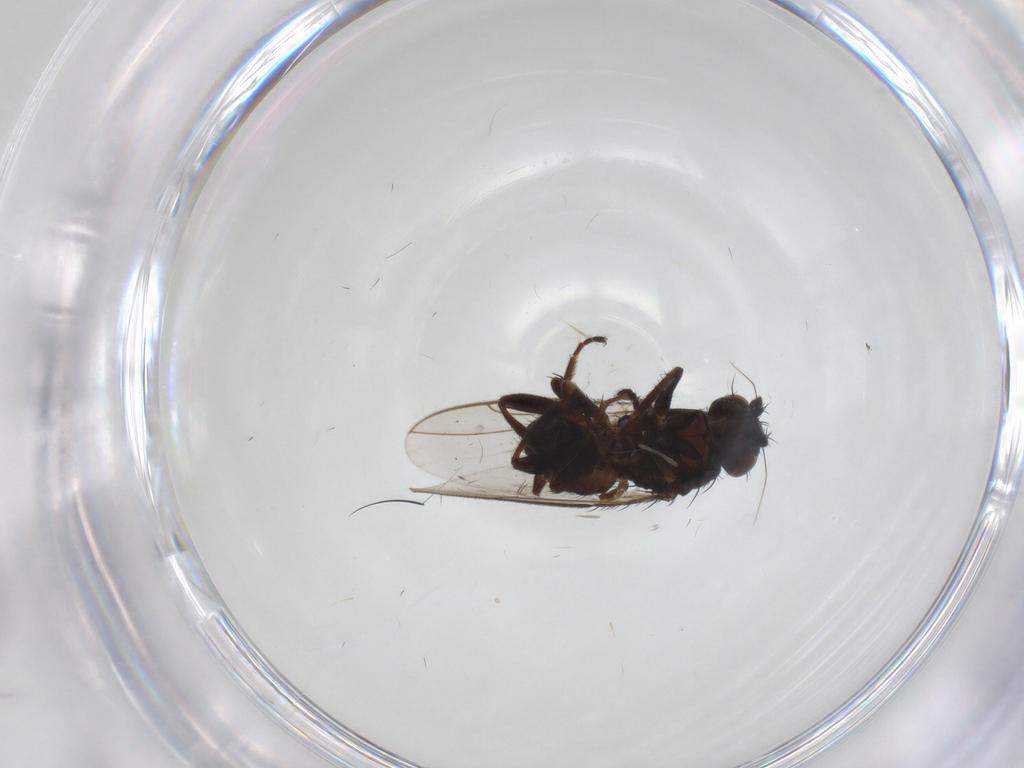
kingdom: Animalia
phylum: Arthropoda
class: Insecta
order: Diptera
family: Sphaeroceridae
